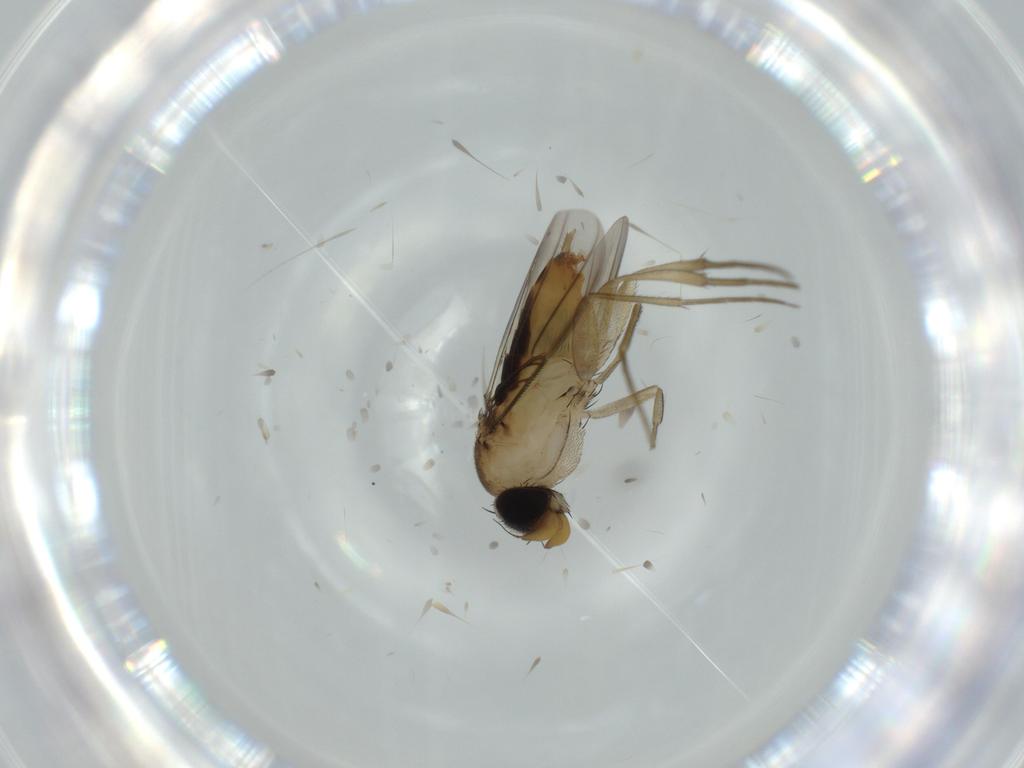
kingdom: Animalia
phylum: Arthropoda
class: Insecta
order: Diptera
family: Phoridae
